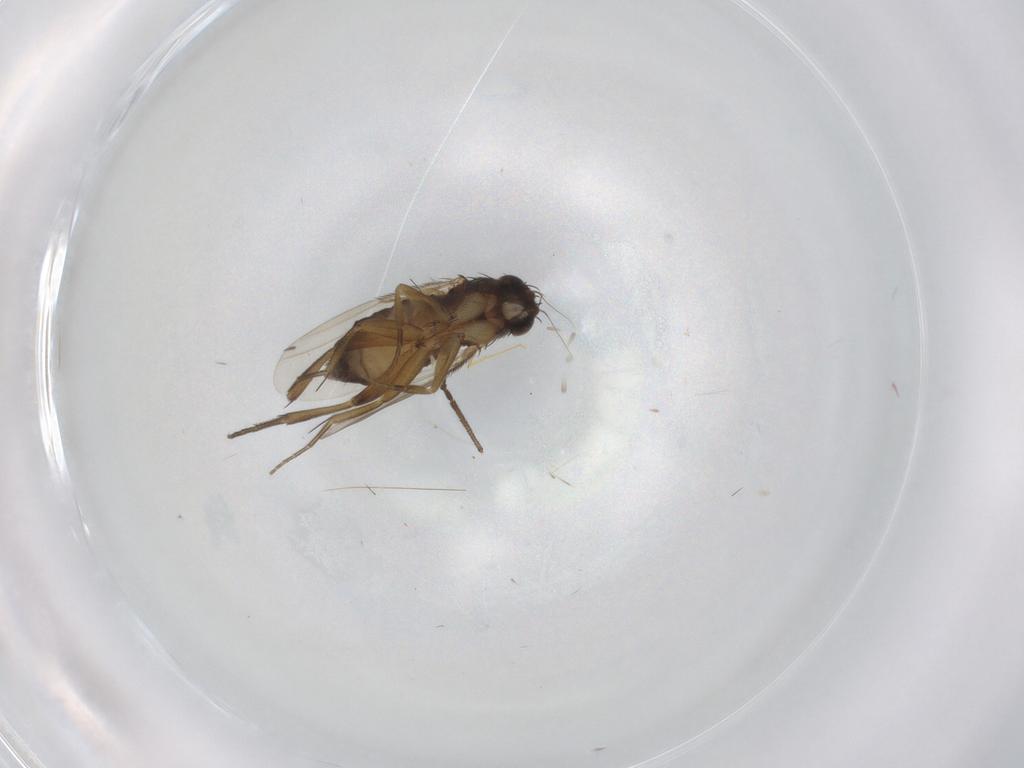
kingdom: Animalia
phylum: Arthropoda
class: Insecta
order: Diptera
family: Phoridae
